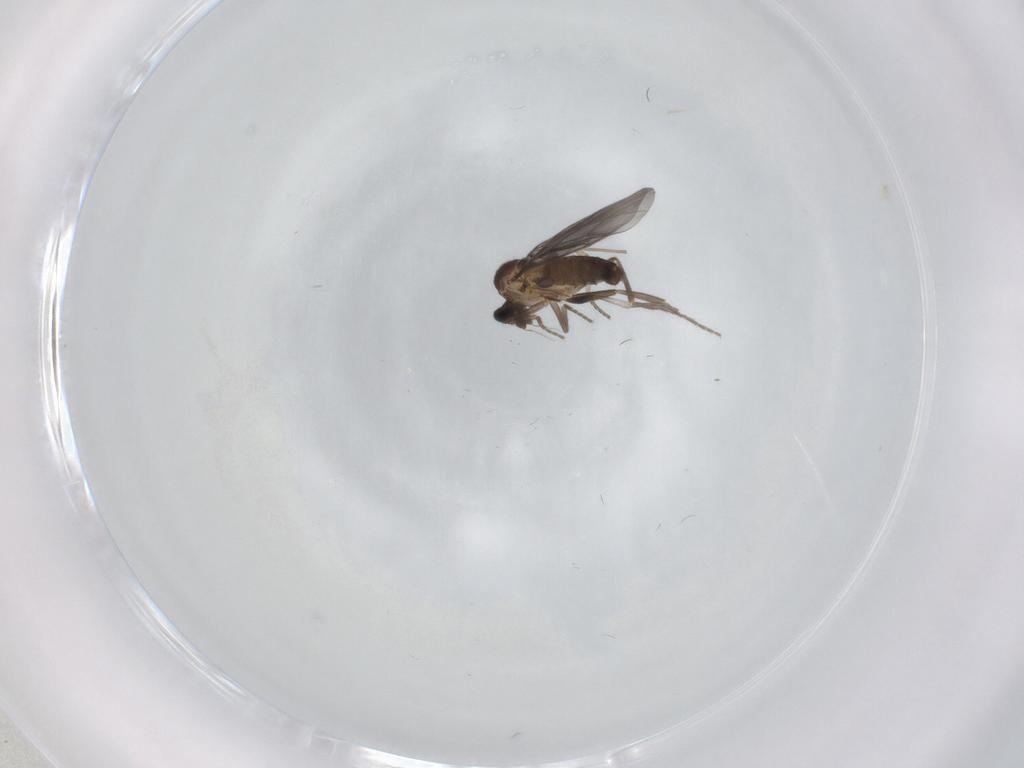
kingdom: Animalia
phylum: Arthropoda
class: Insecta
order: Diptera
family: Phoridae
